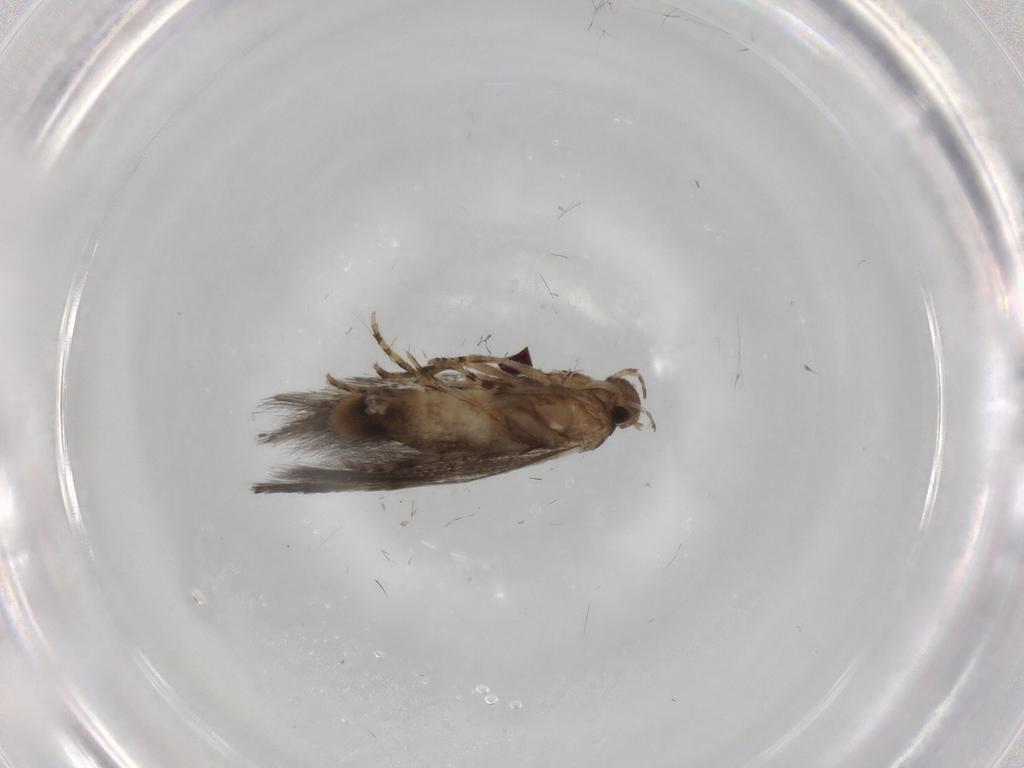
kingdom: Animalia
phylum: Arthropoda
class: Insecta
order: Lepidoptera
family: Elachistidae
